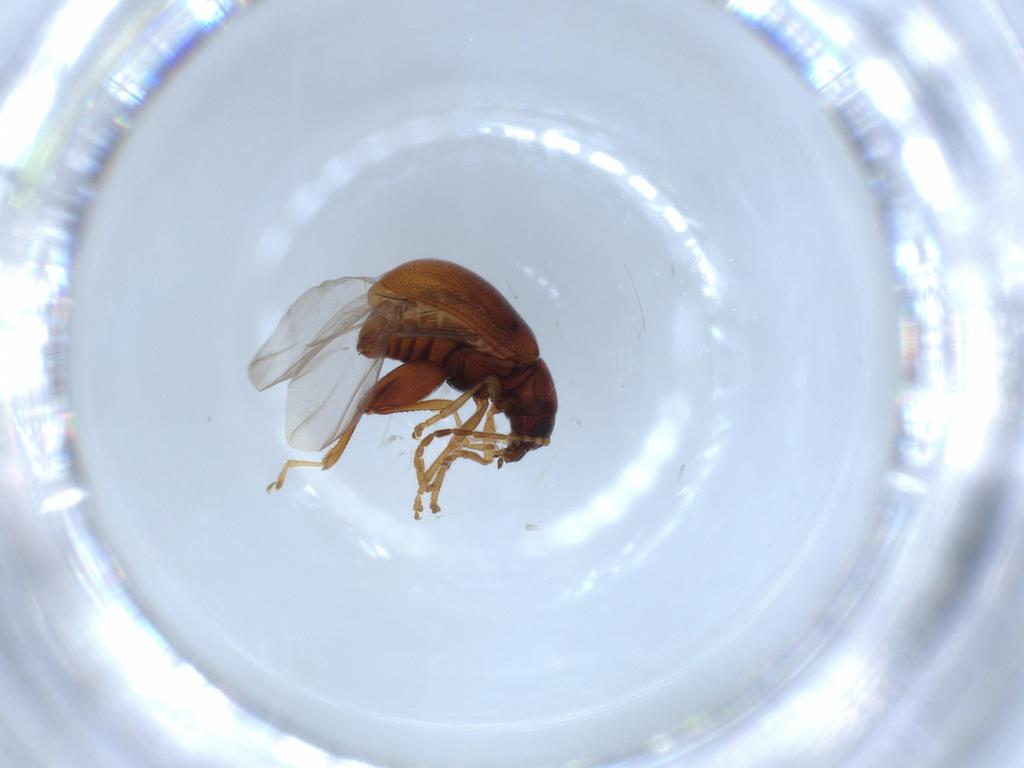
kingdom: Animalia
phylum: Arthropoda
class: Insecta
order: Coleoptera
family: Chrysomelidae
